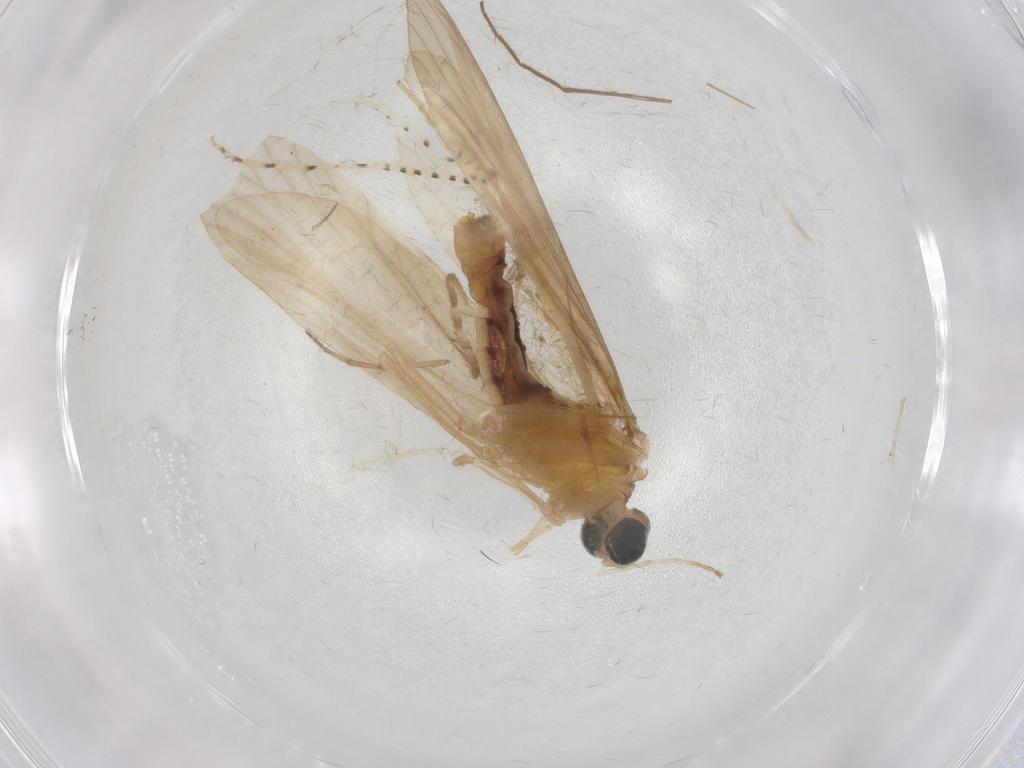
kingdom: Animalia
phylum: Arthropoda
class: Insecta
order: Trichoptera
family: Ecnomidae
